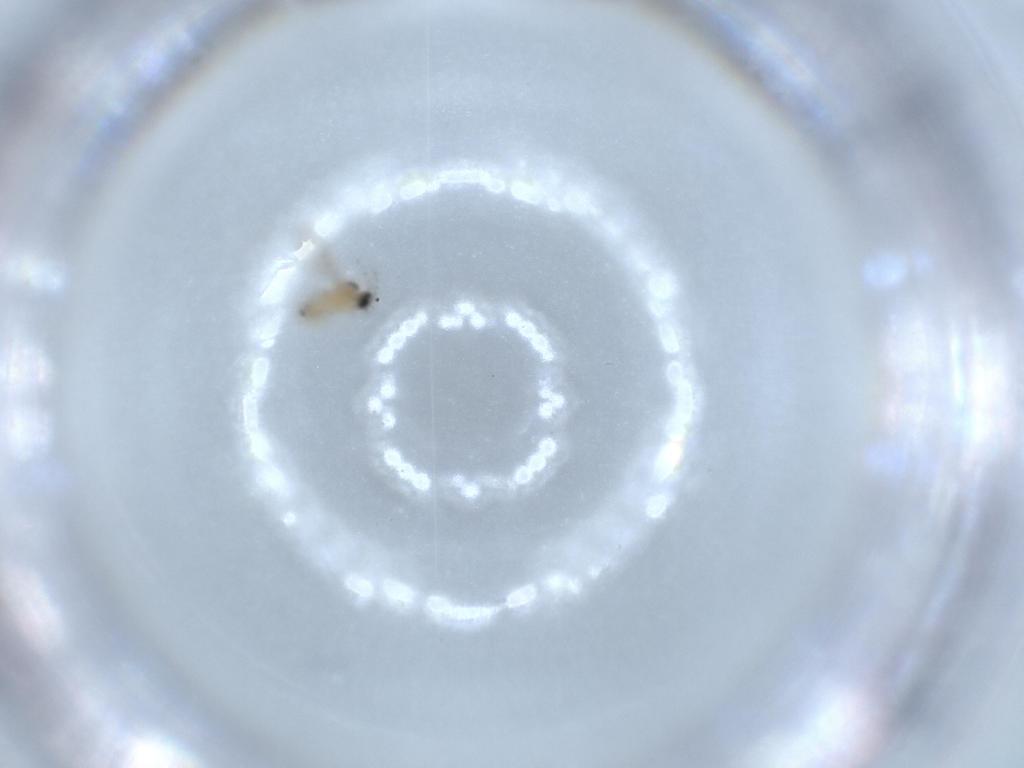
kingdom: Animalia
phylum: Arthropoda
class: Insecta
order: Diptera
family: Cecidomyiidae
